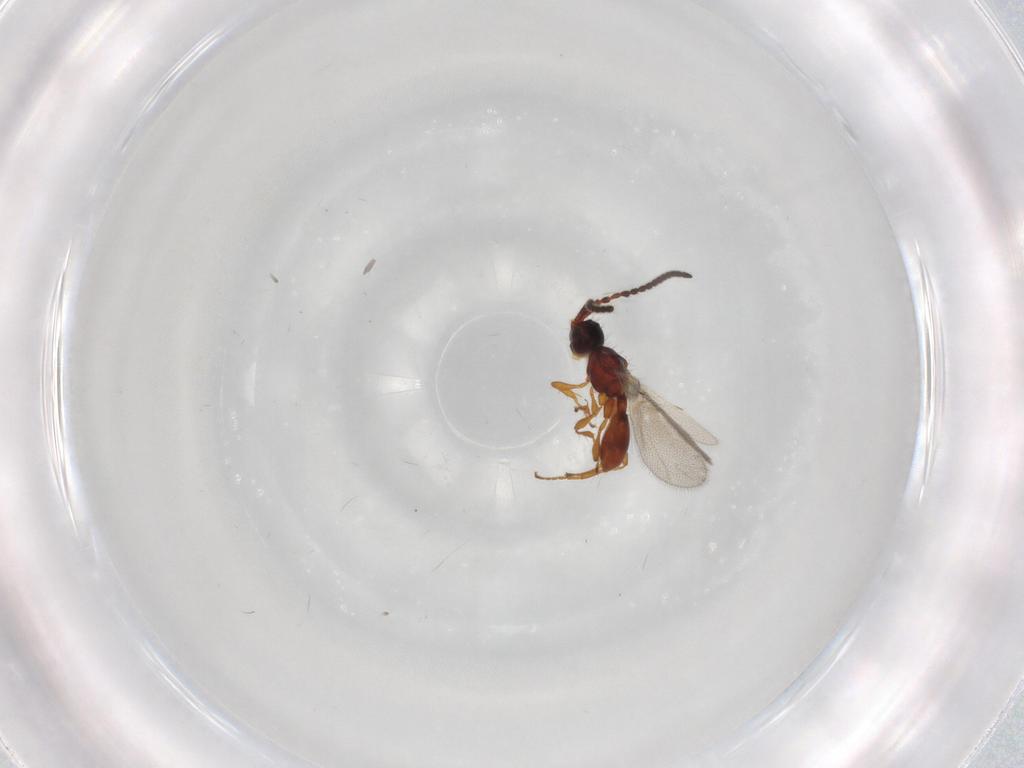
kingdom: Animalia
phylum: Arthropoda
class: Insecta
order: Hymenoptera
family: Diapriidae
